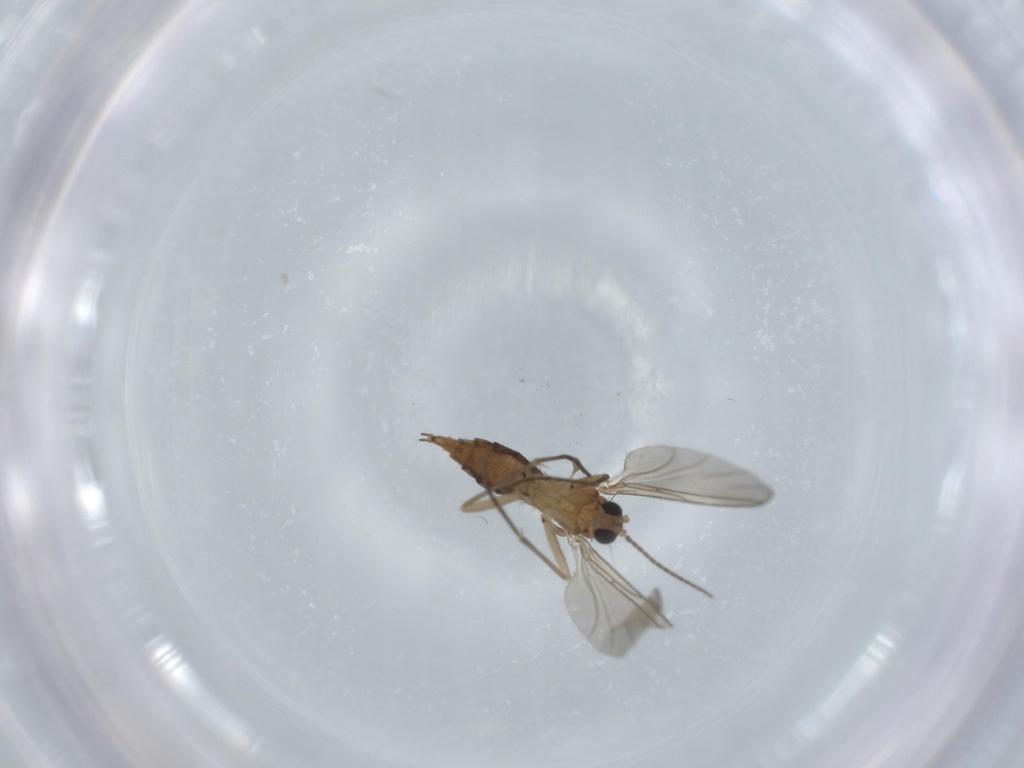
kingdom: Animalia
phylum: Arthropoda
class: Insecta
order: Diptera
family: Sciaridae
